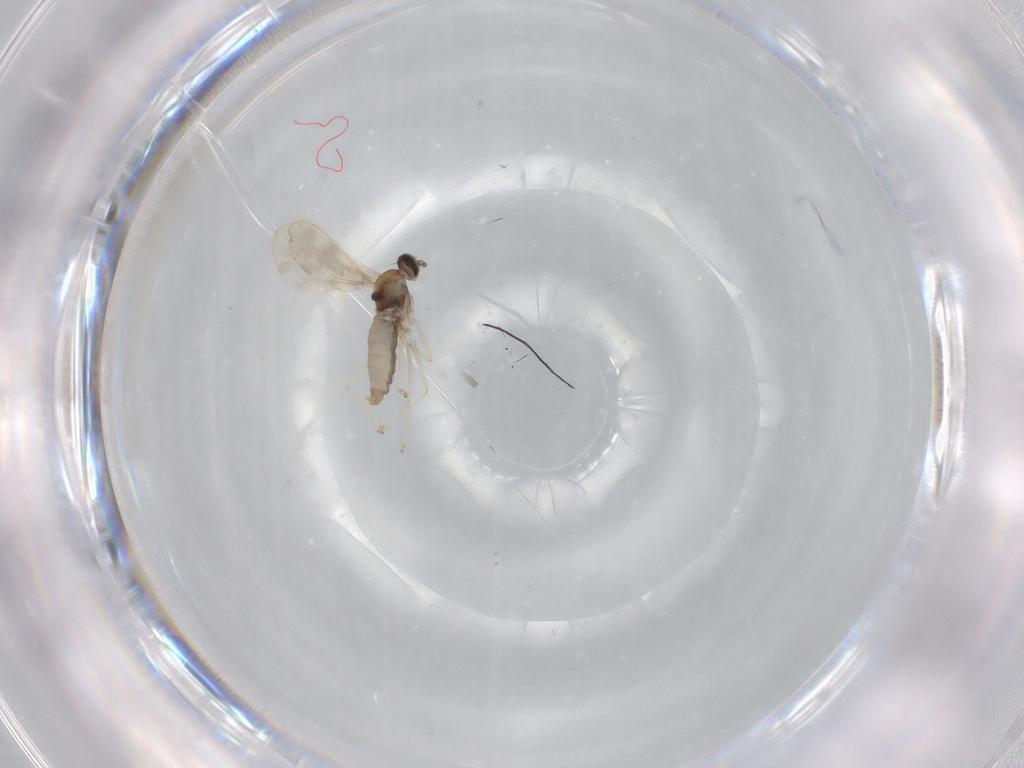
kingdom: Animalia
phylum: Arthropoda
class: Insecta
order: Diptera
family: Cecidomyiidae
